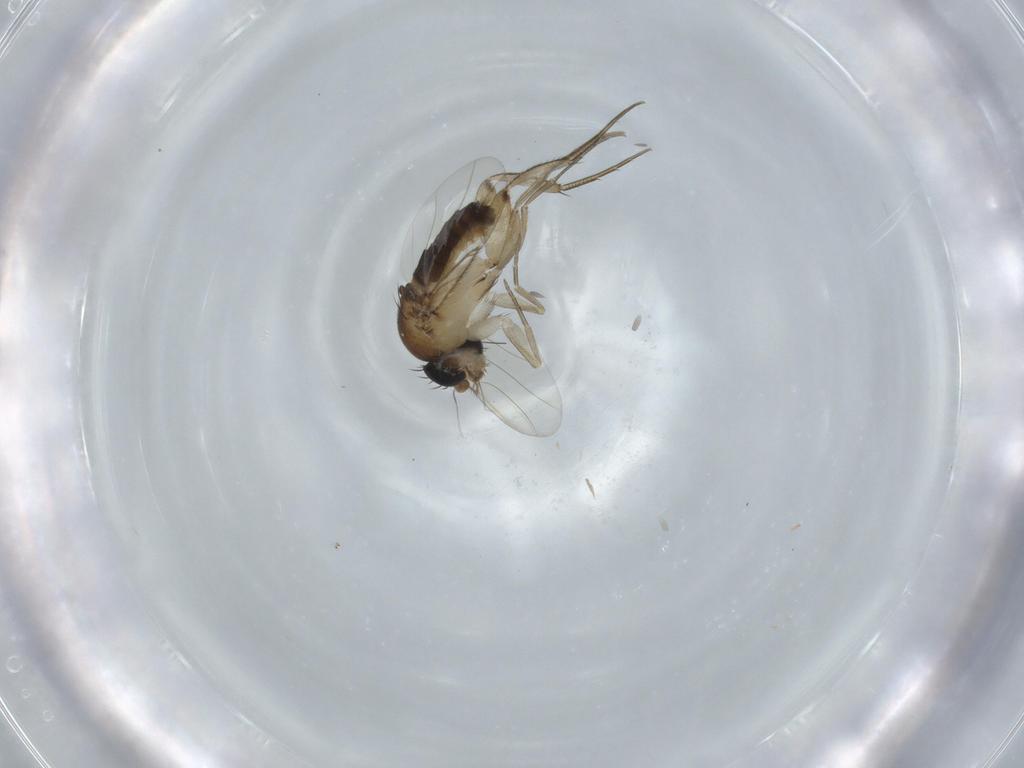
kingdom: Animalia
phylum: Arthropoda
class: Insecta
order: Diptera
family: Phoridae
